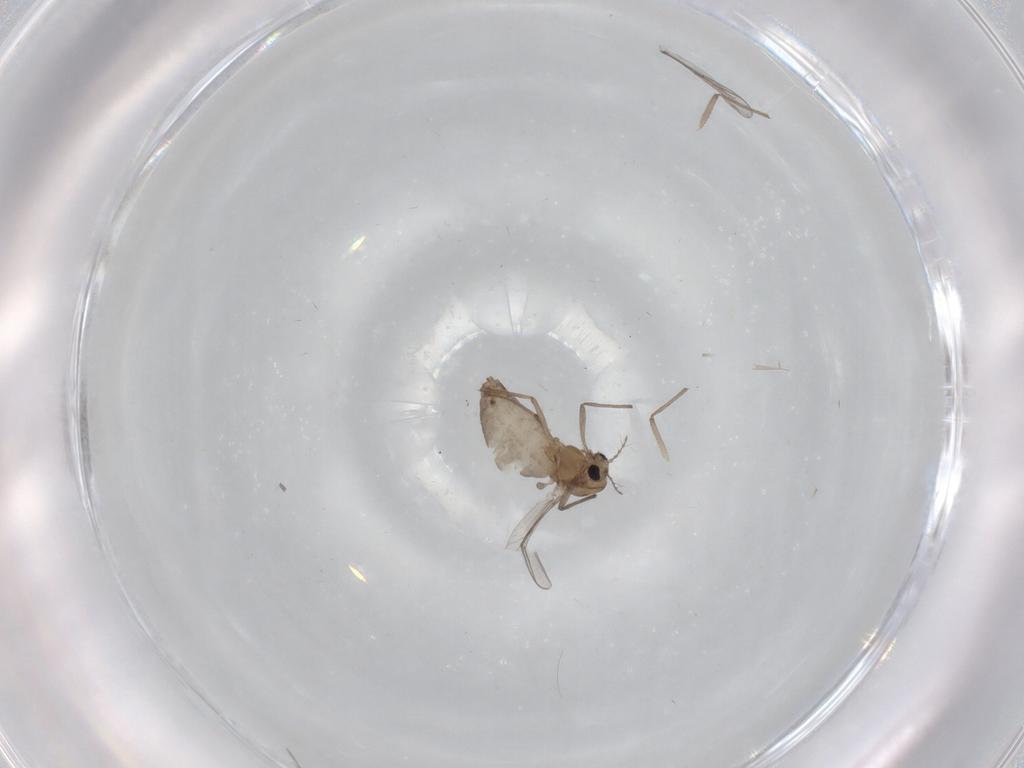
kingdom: Animalia
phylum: Arthropoda
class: Insecta
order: Diptera
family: Chironomidae
